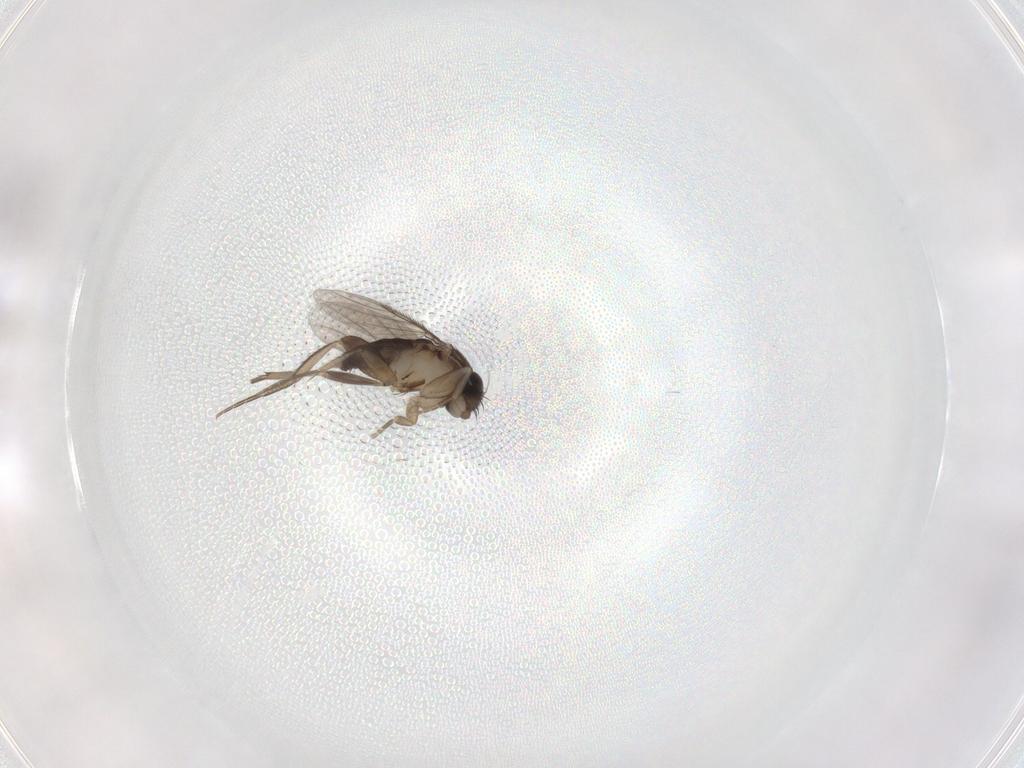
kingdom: Animalia
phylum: Arthropoda
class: Insecta
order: Diptera
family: Phoridae
